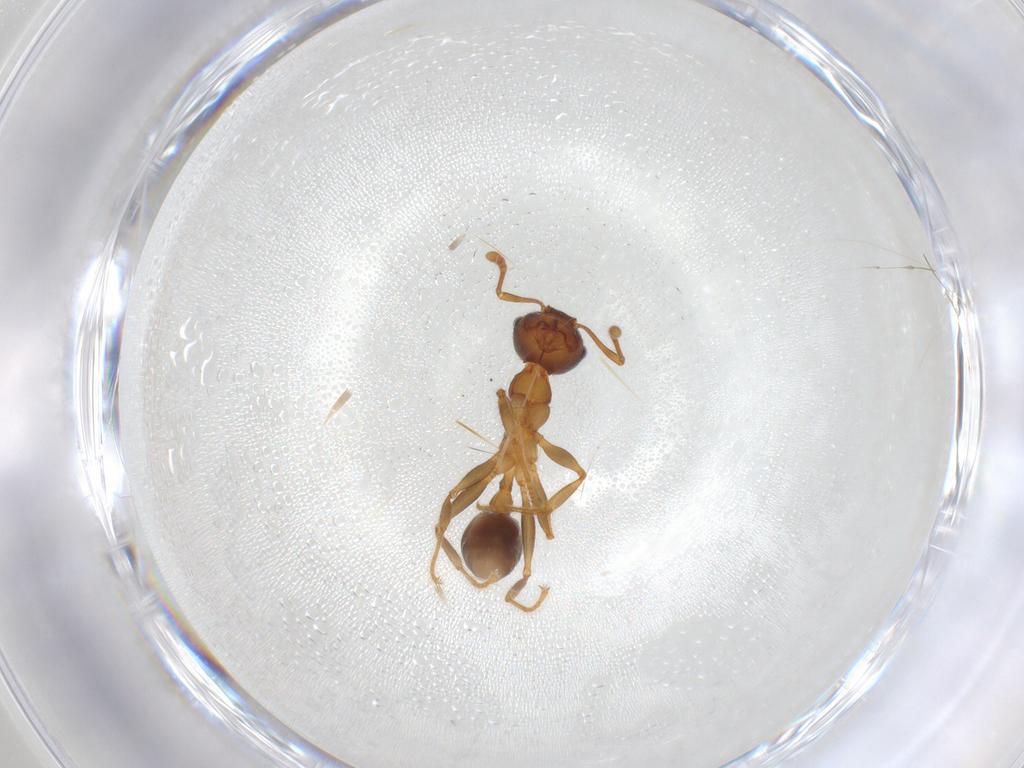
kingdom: Animalia
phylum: Arthropoda
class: Insecta
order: Hymenoptera
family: Formicidae
